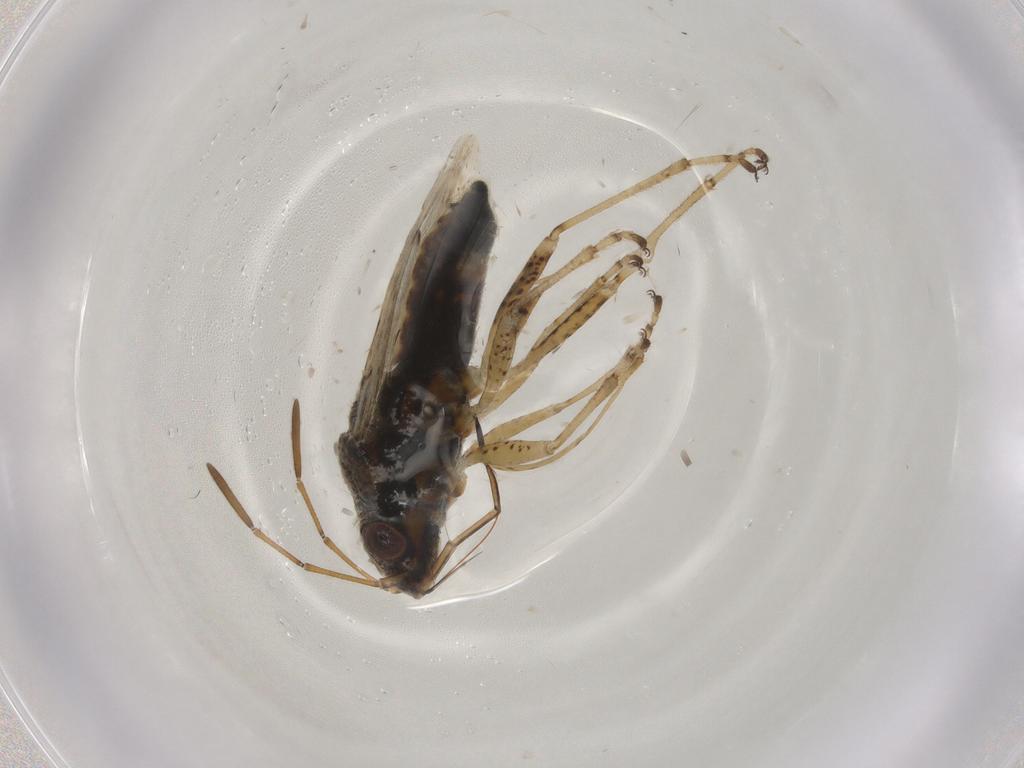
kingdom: Animalia
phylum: Arthropoda
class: Insecta
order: Hemiptera
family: Lygaeidae
